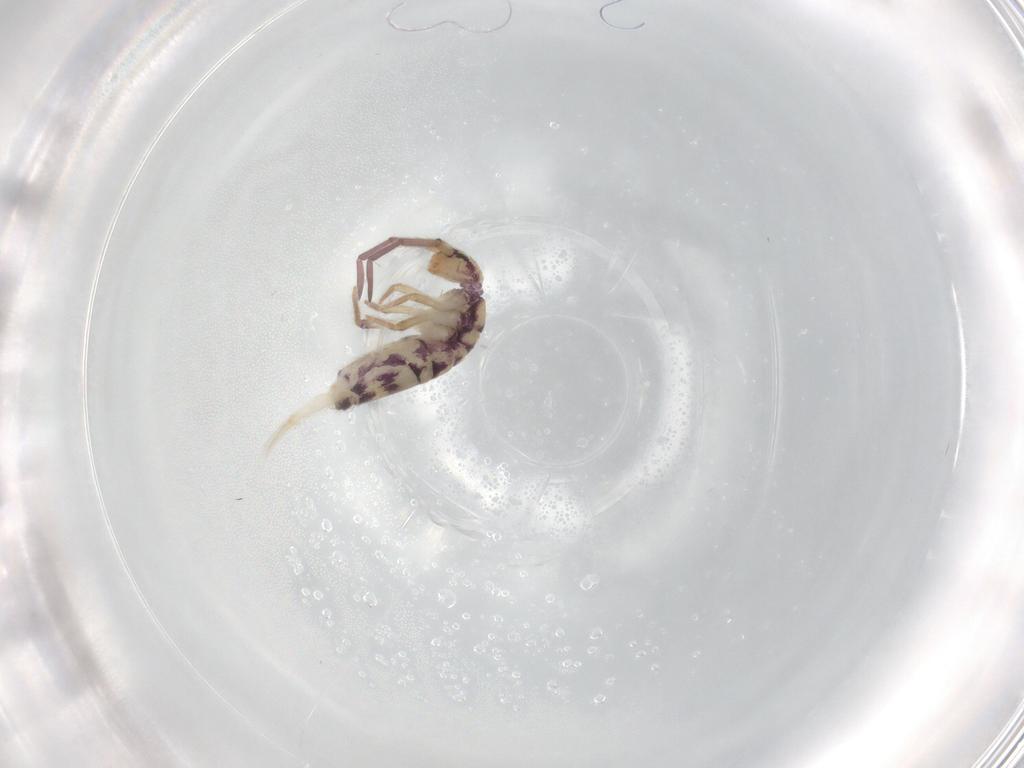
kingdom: Animalia
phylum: Arthropoda
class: Collembola
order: Entomobryomorpha
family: Entomobryidae
